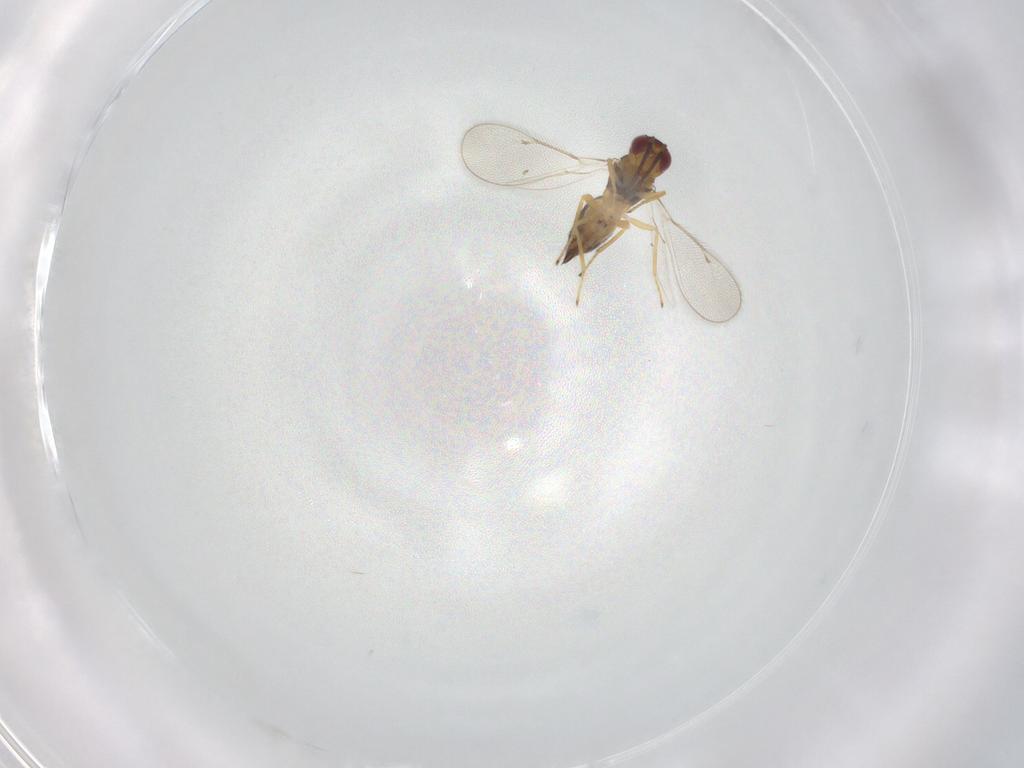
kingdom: Animalia
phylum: Arthropoda
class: Insecta
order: Hymenoptera
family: Eulophidae
